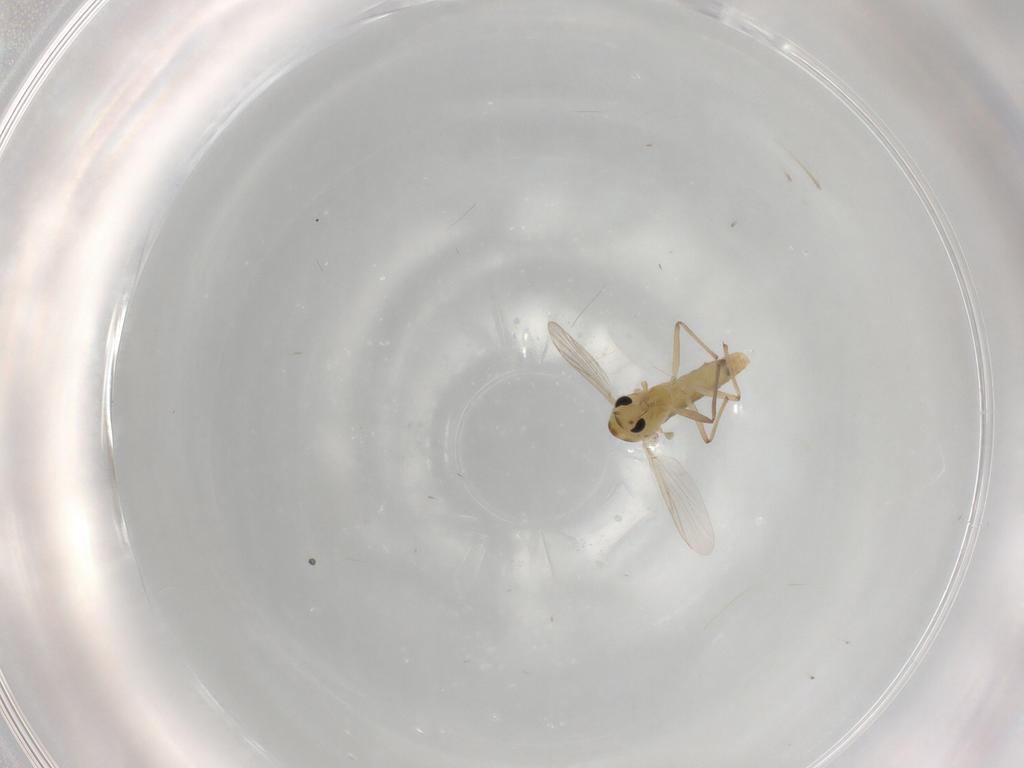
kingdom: Animalia
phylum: Arthropoda
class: Insecta
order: Diptera
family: Chironomidae
